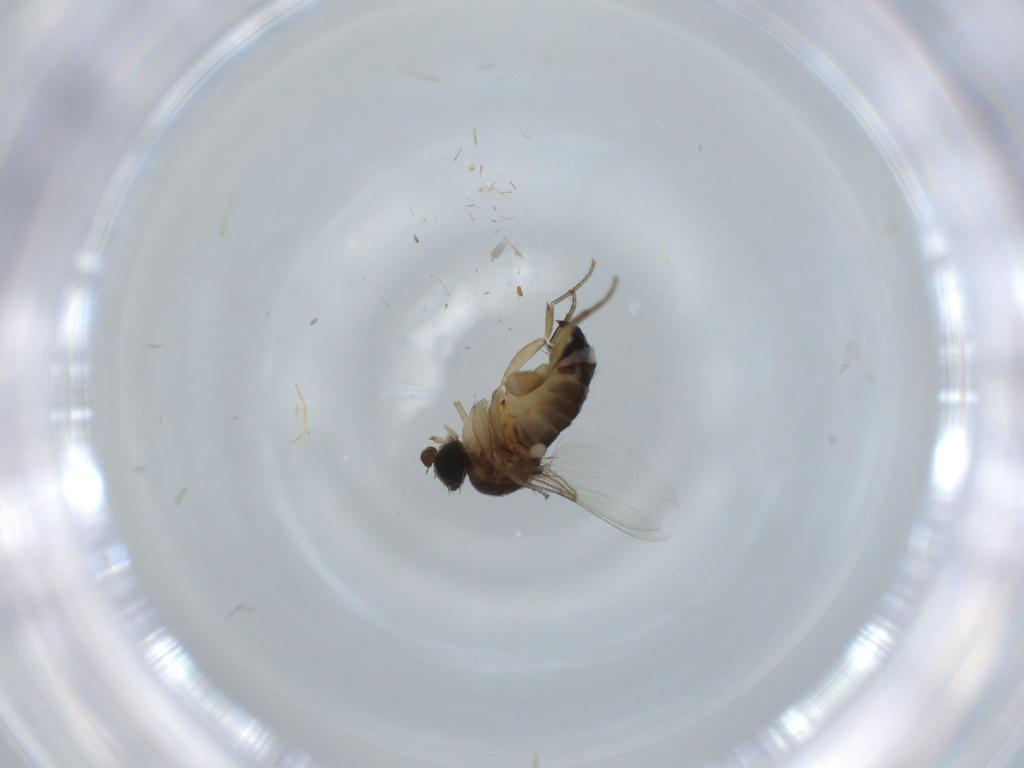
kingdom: Animalia
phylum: Arthropoda
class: Insecta
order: Diptera
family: Phoridae
